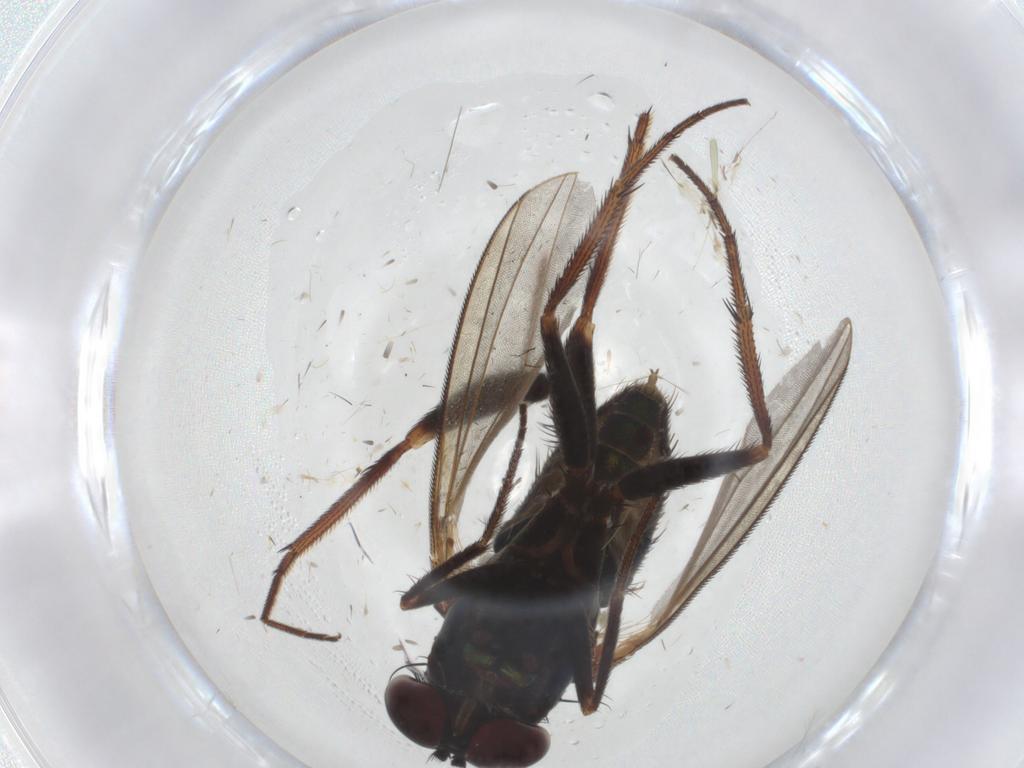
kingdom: Animalia
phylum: Arthropoda
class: Insecta
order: Diptera
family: Dolichopodidae
